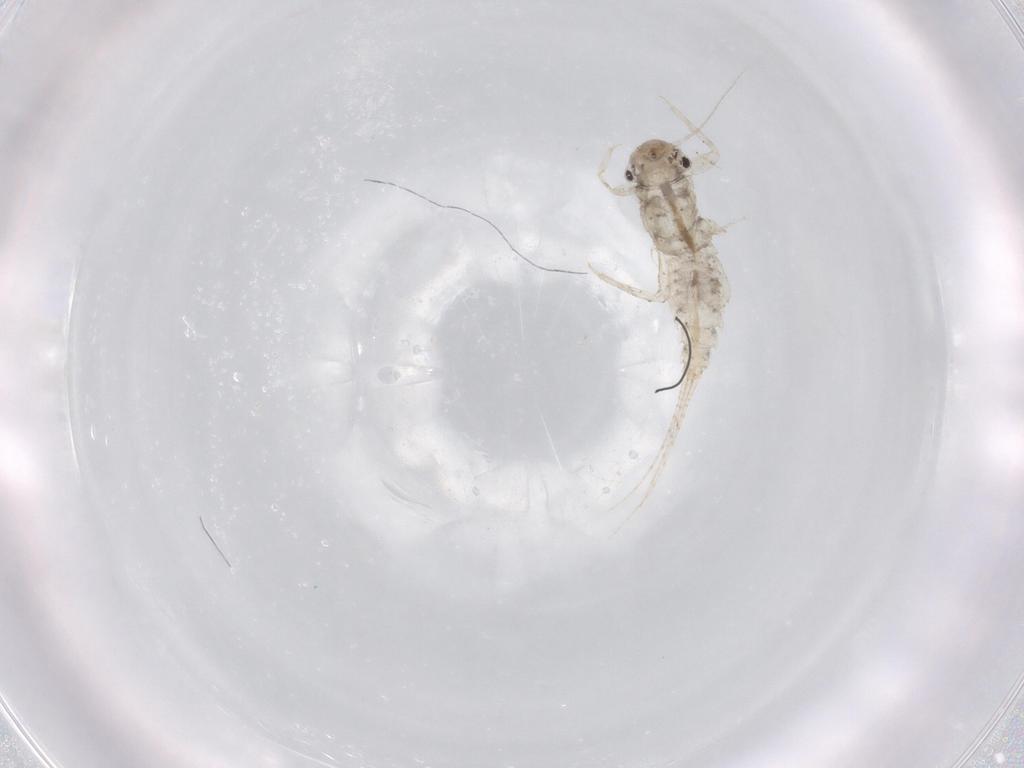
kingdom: Animalia
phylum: Arthropoda
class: Insecta
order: Ephemeroptera
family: Caenidae
